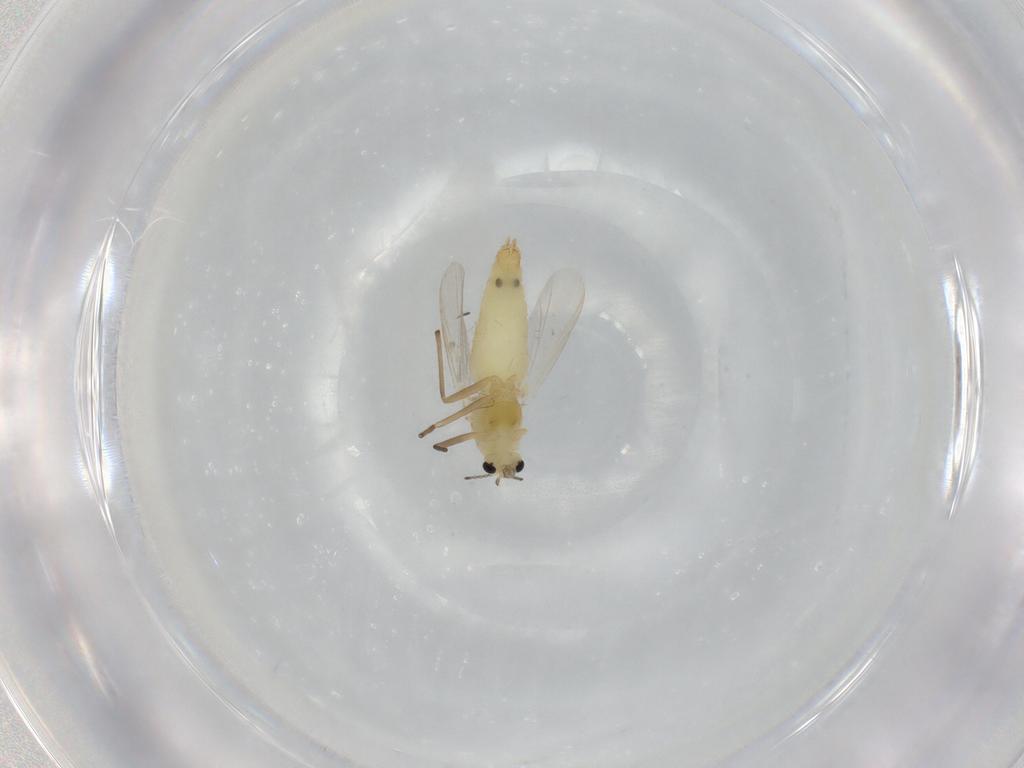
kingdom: Animalia
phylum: Arthropoda
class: Insecta
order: Diptera
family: Chironomidae
